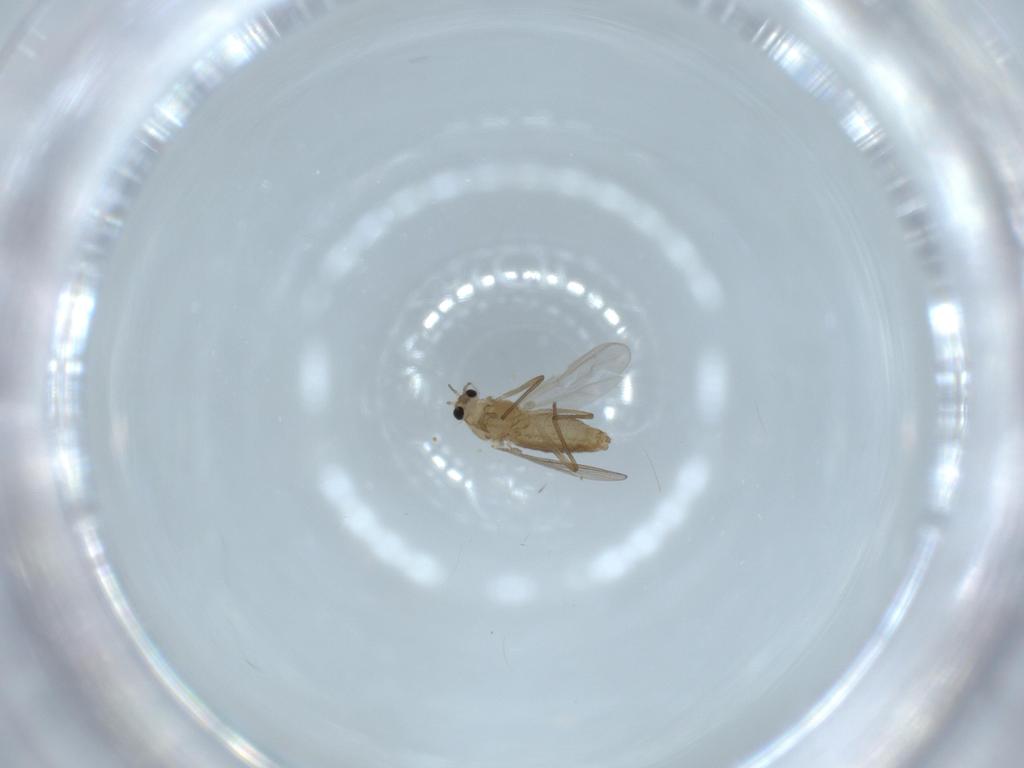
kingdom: Animalia
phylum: Arthropoda
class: Insecta
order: Diptera
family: Chironomidae
